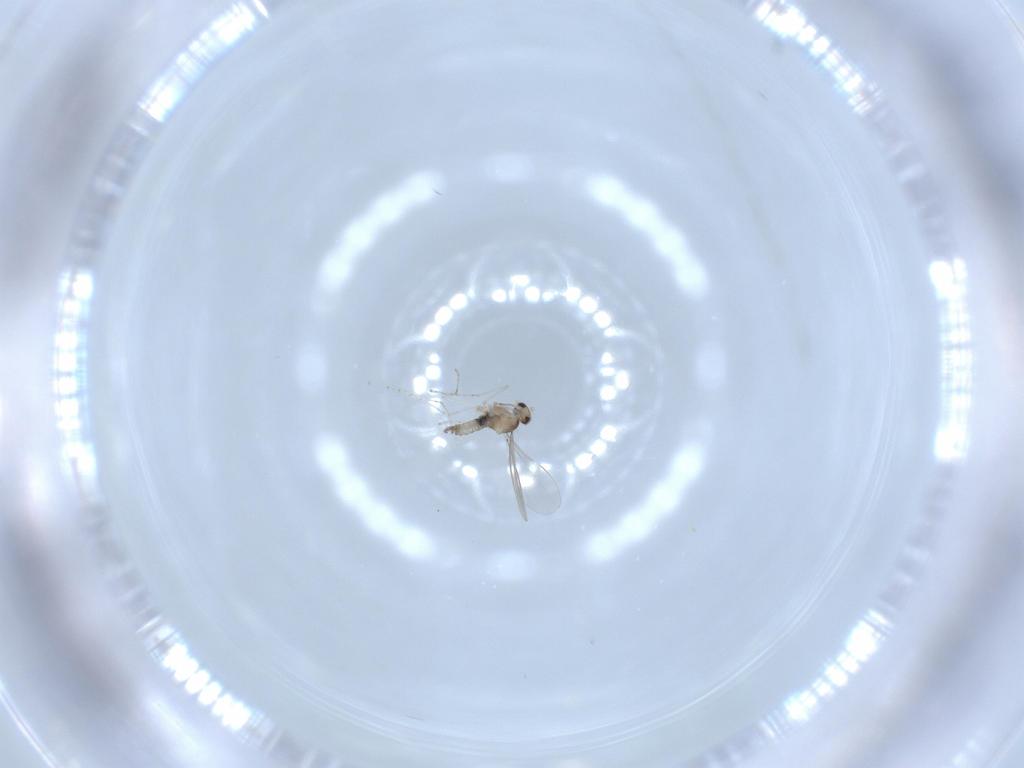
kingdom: Animalia
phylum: Arthropoda
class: Insecta
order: Diptera
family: Cecidomyiidae
